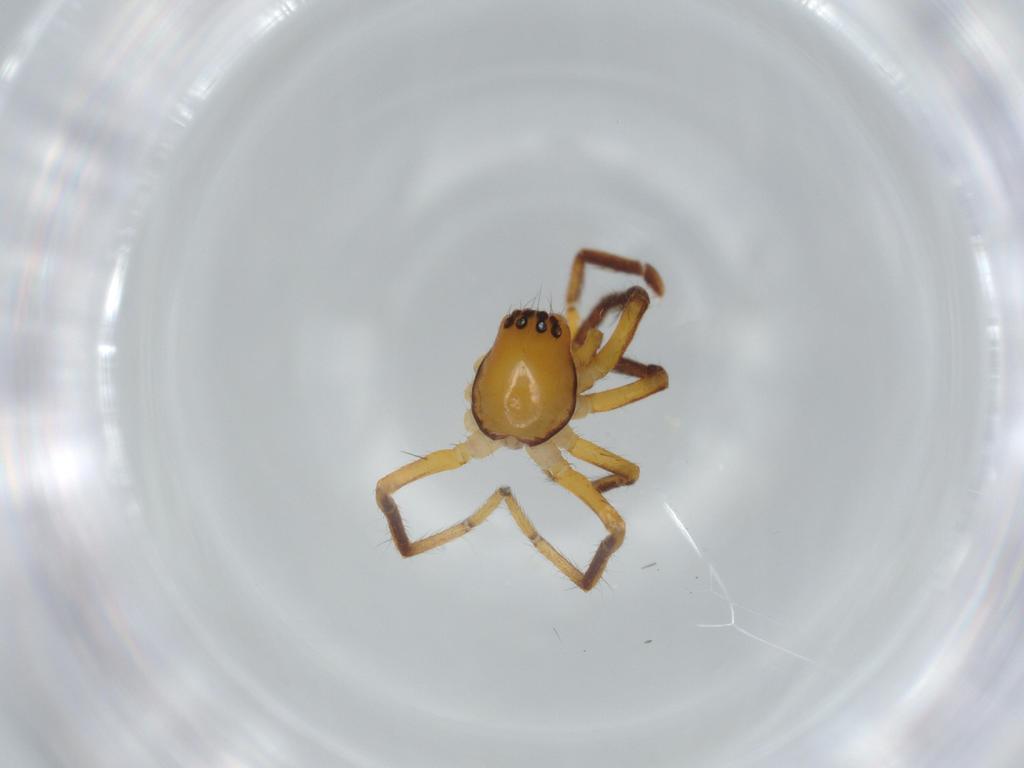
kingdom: Animalia
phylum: Arthropoda
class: Arachnida
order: Araneae
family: Corinnidae
